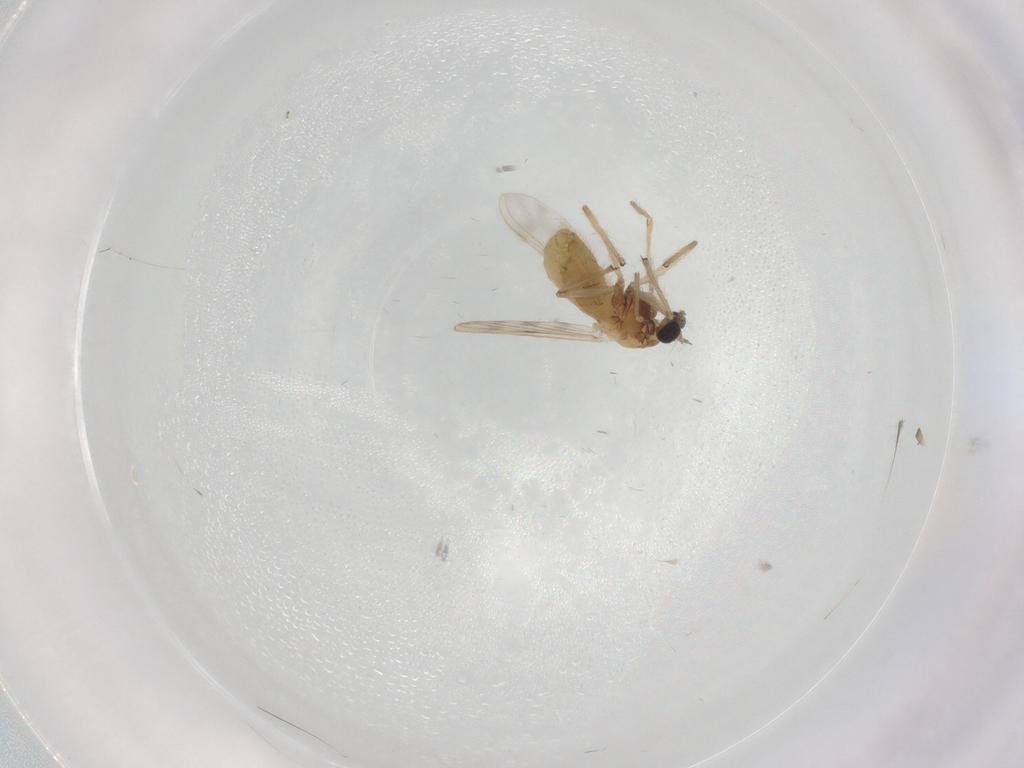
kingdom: Animalia
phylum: Arthropoda
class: Insecta
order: Diptera
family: Chironomidae
